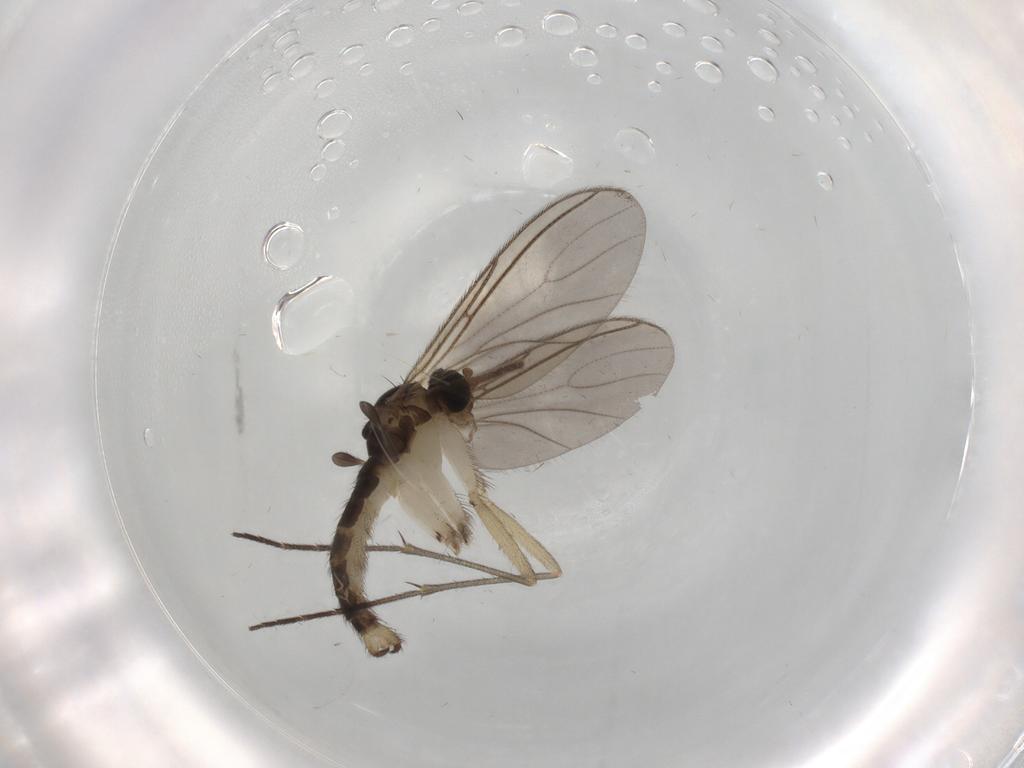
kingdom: Animalia
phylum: Arthropoda
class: Insecta
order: Diptera
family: Sciaridae
